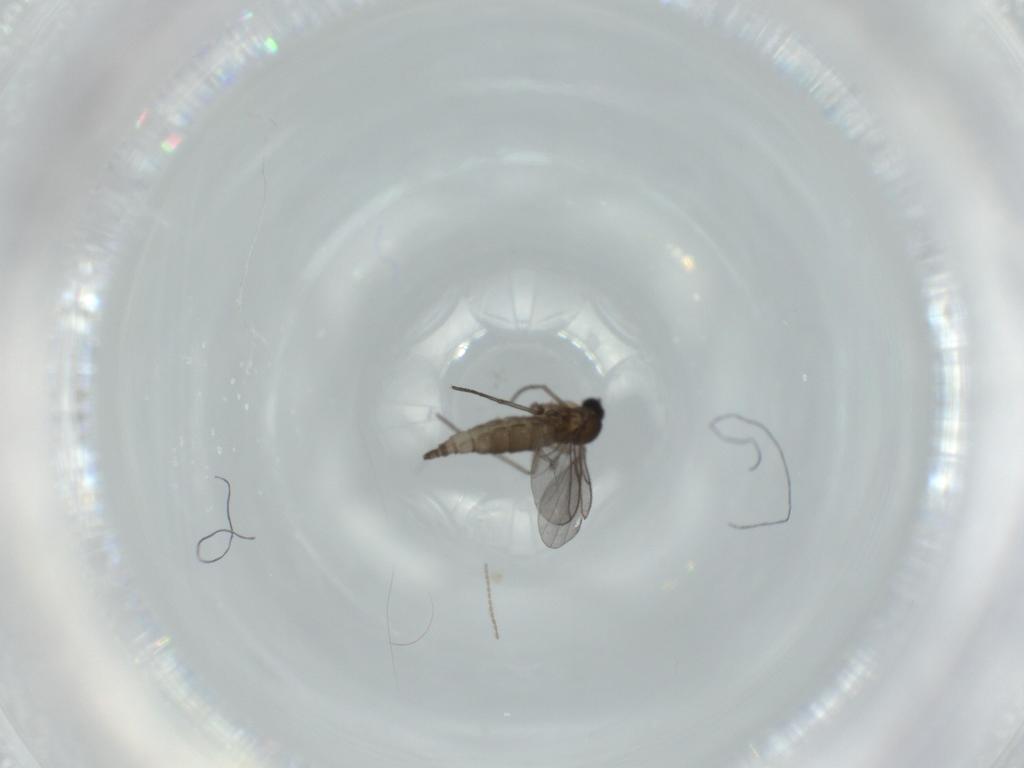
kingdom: Animalia
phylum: Arthropoda
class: Insecta
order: Diptera
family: Cecidomyiidae
